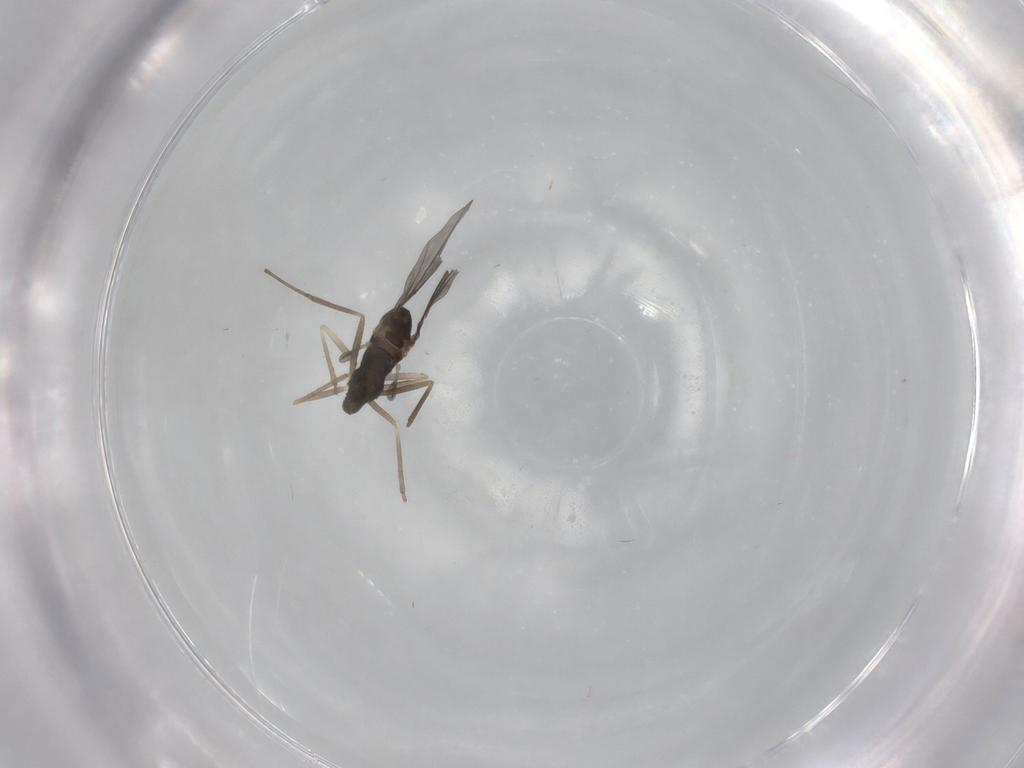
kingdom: Animalia
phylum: Arthropoda
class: Insecta
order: Diptera
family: Cecidomyiidae
